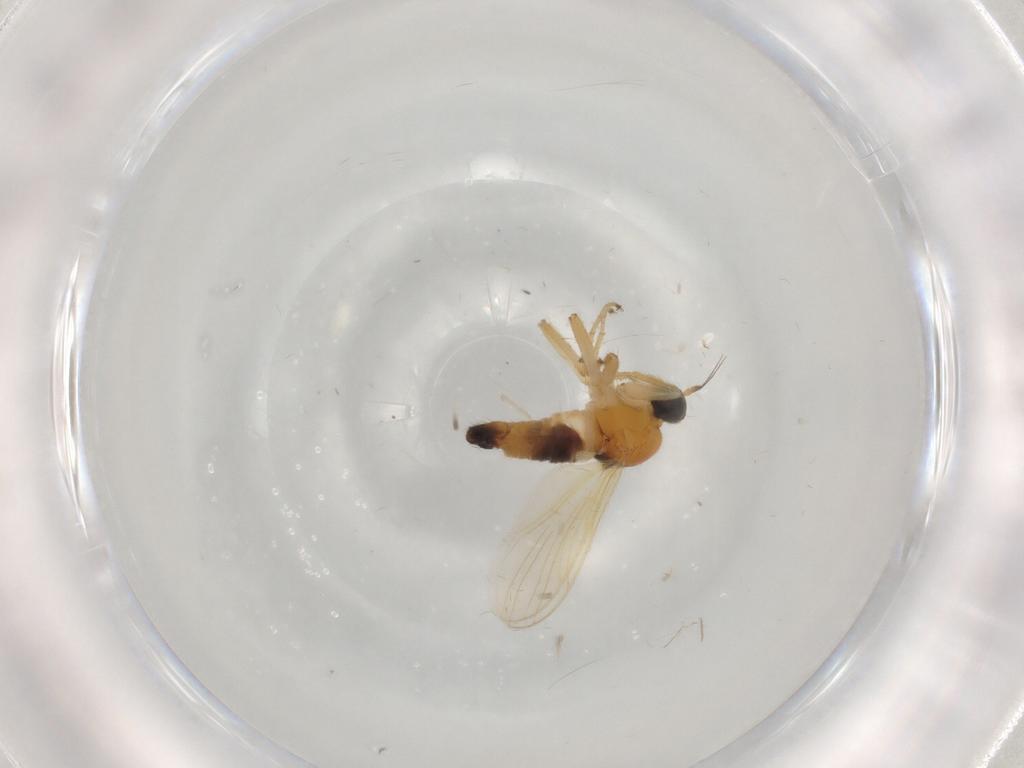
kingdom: Animalia
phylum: Arthropoda
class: Insecta
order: Diptera
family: Hybotidae
